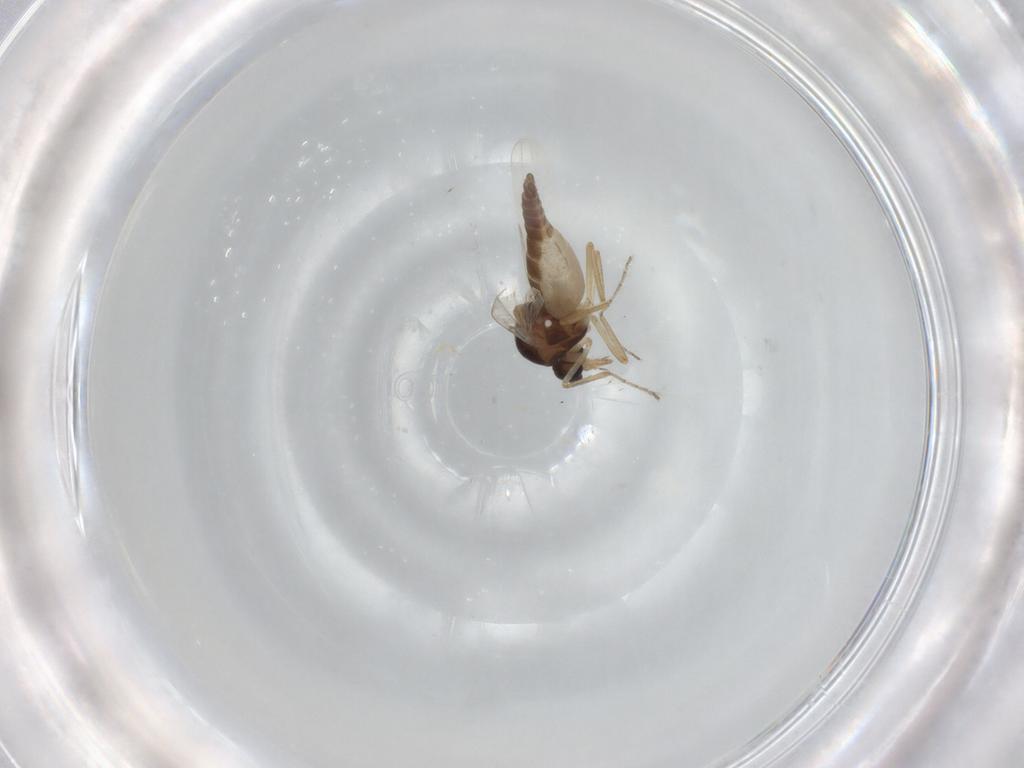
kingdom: Animalia
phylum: Arthropoda
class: Insecta
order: Diptera
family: Ceratopogonidae
